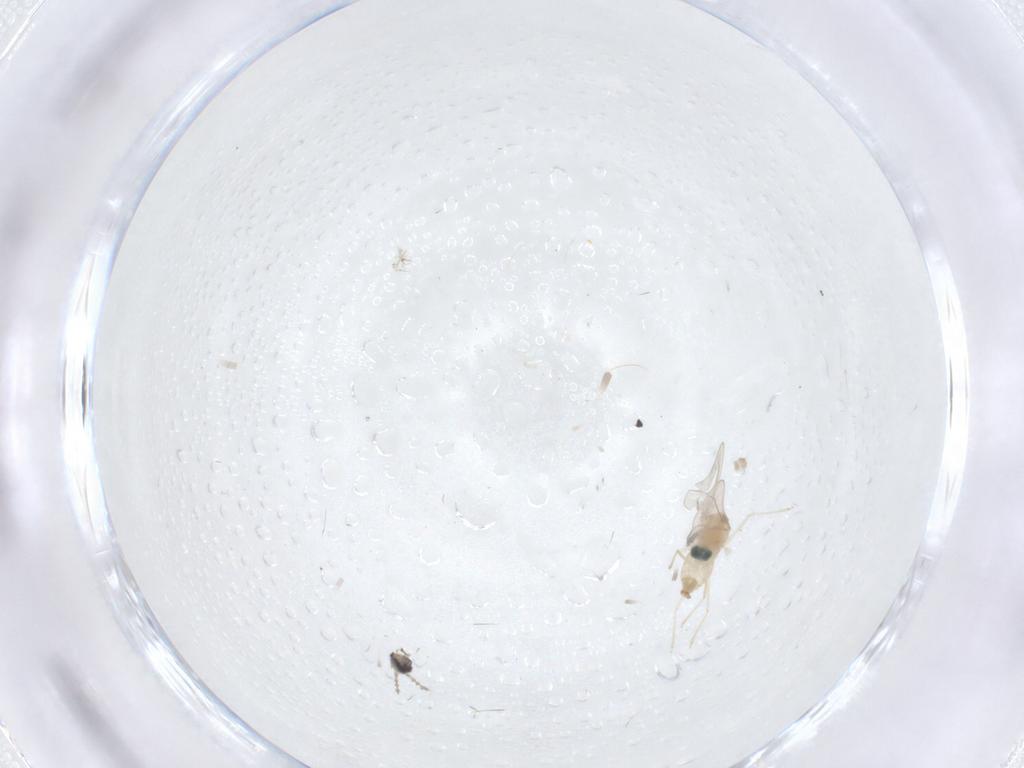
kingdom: Animalia
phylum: Arthropoda
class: Insecta
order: Diptera
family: Cecidomyiidae
